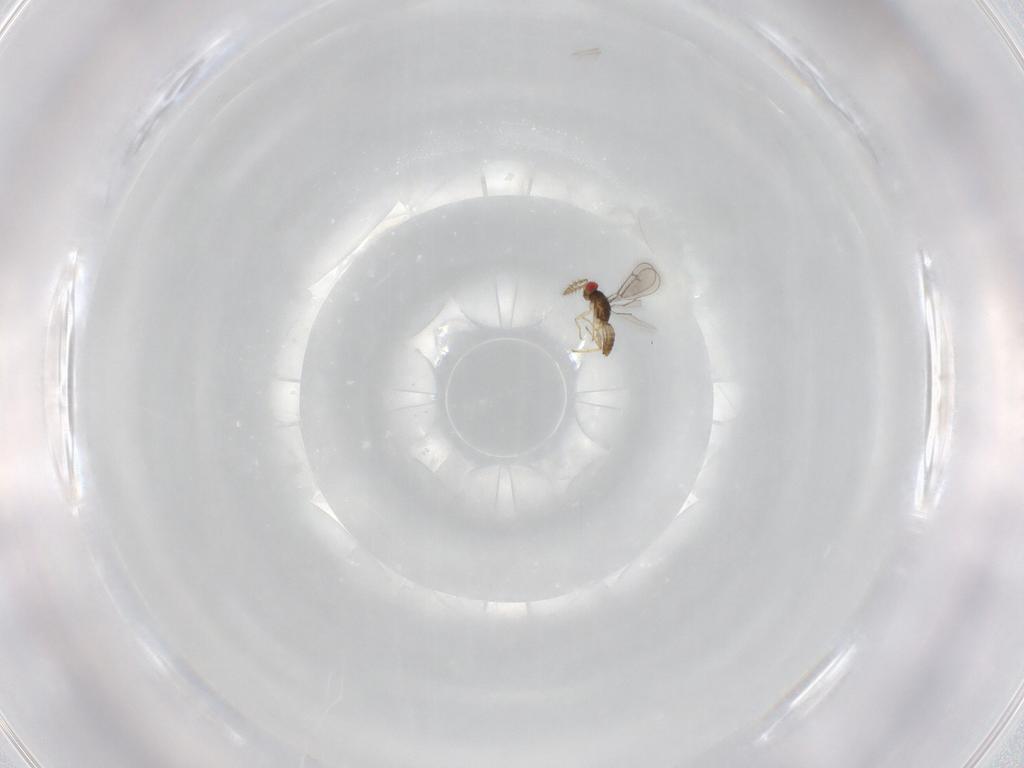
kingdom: Animalia
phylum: Arthropoda
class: Insecta
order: Hymenoptera
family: Eulophidae
